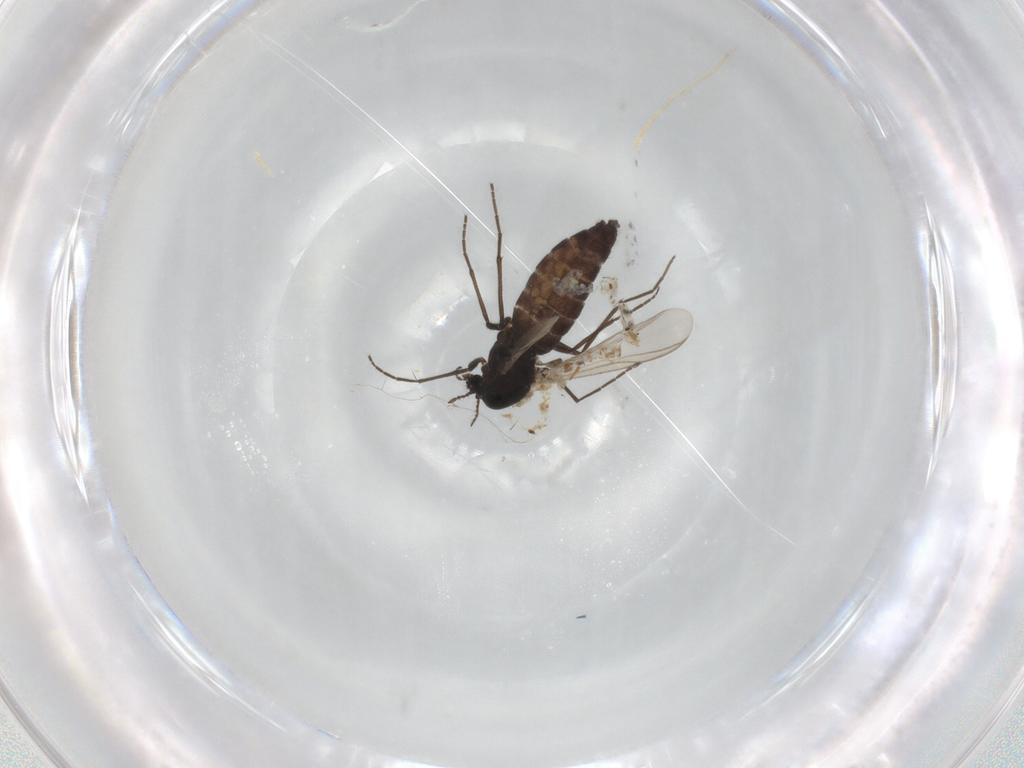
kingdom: Animalia
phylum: Arthropoda
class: Insecta
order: Diptera
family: Chironomidae
